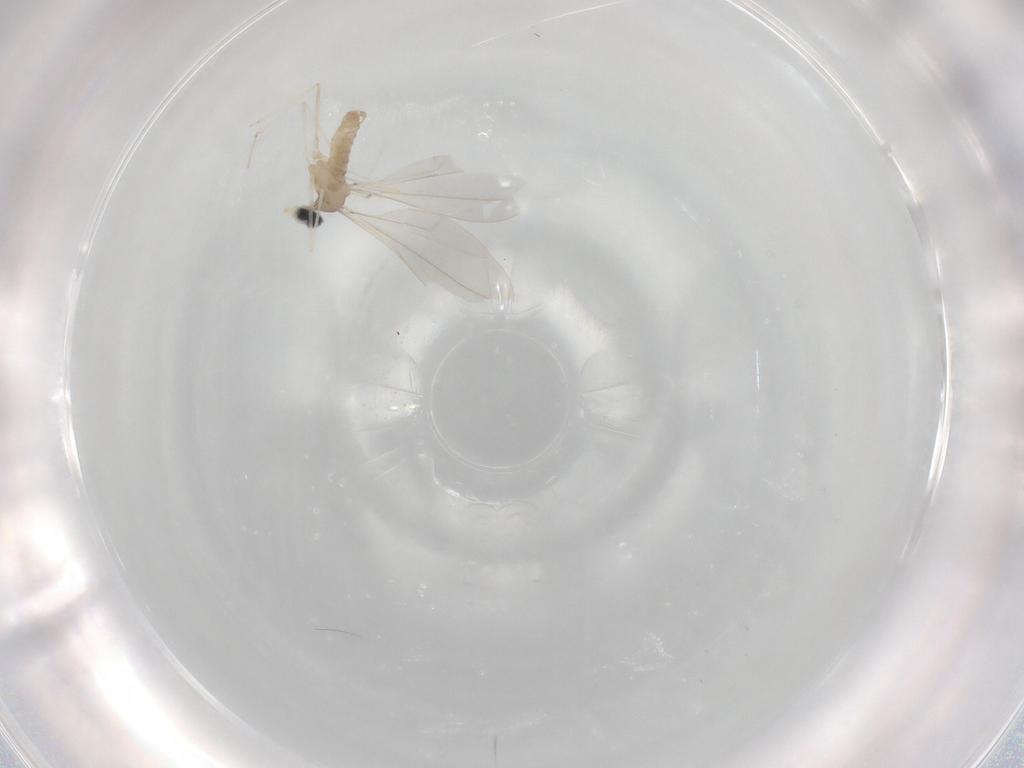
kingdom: Animalia
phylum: Arthropoda
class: Insecta
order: Diptera
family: Cecidomyiidae
